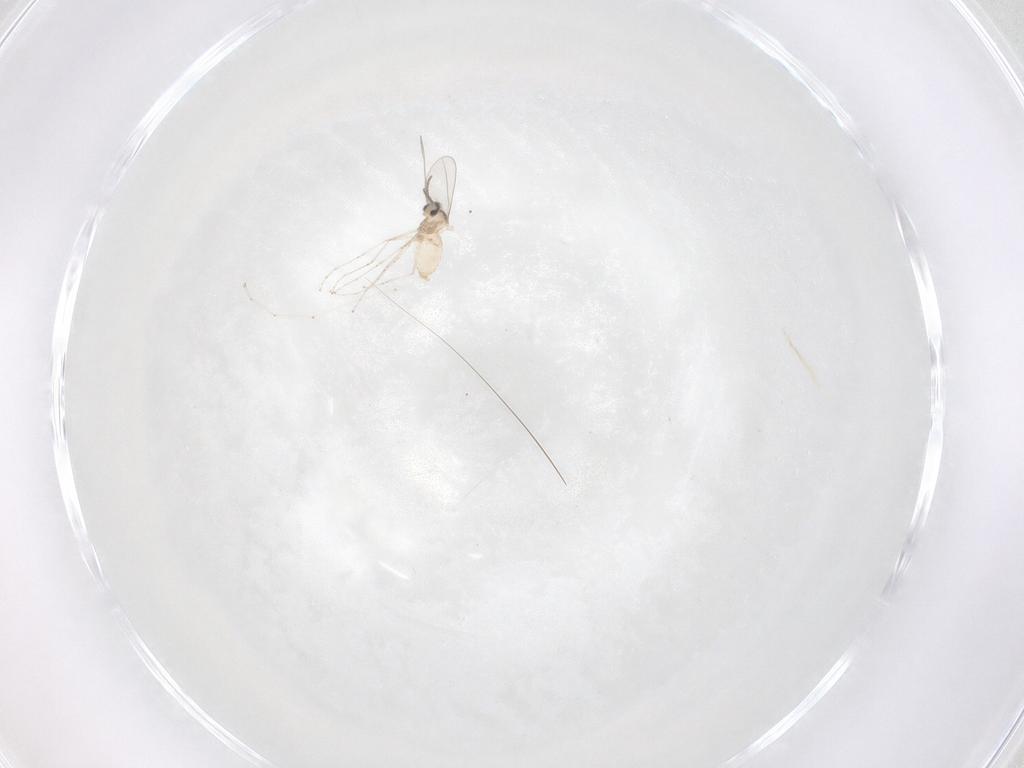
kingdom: Animalia
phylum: Arthropoda
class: Insecta
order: Diptera
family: Cecidomyiidae
